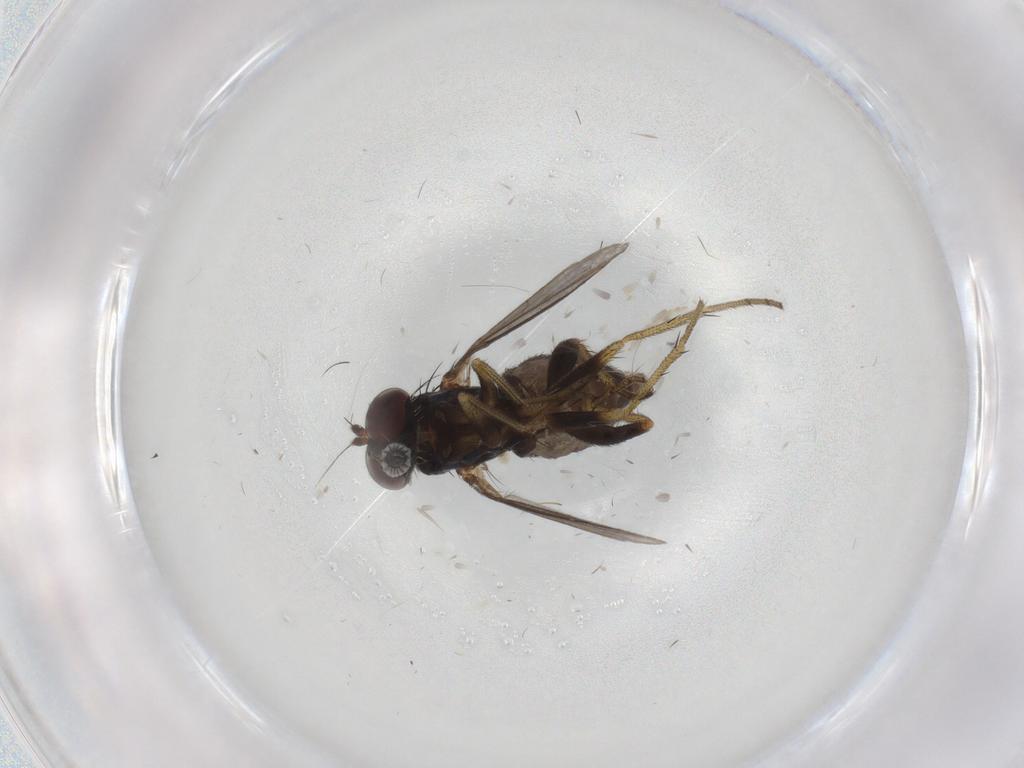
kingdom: Animalia
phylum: Arthropoda
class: Insecta
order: Diptera
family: Chironomidae
